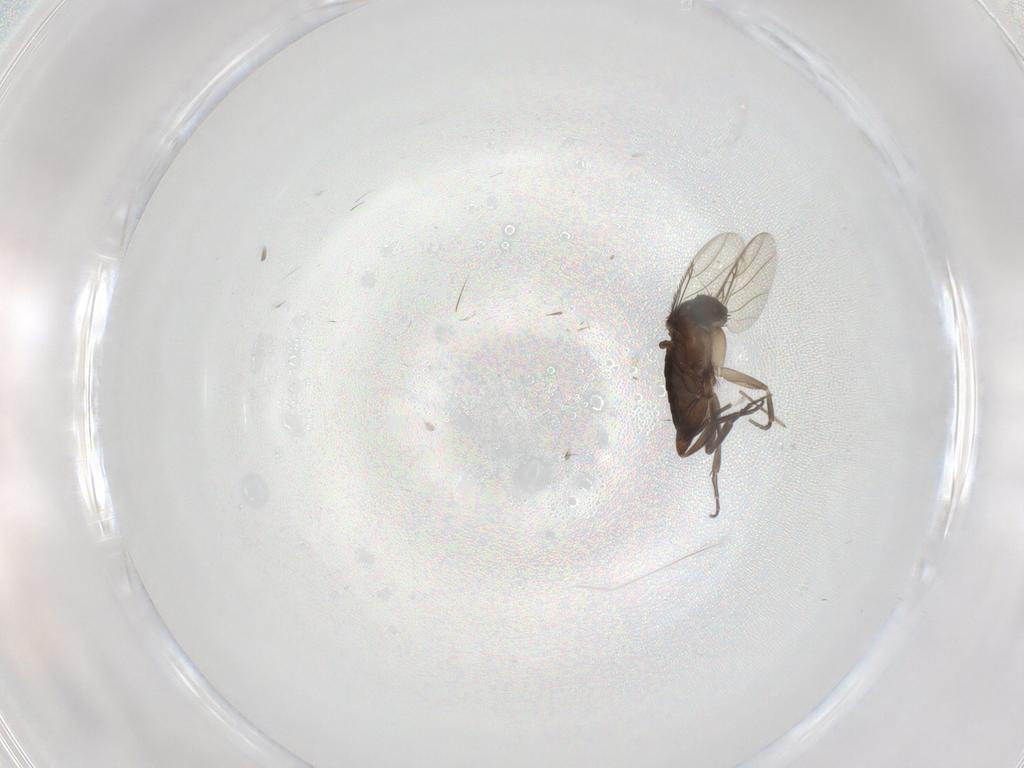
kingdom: Animalia
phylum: Arthropoda
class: Insecta
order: Diptera
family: Phoridae
